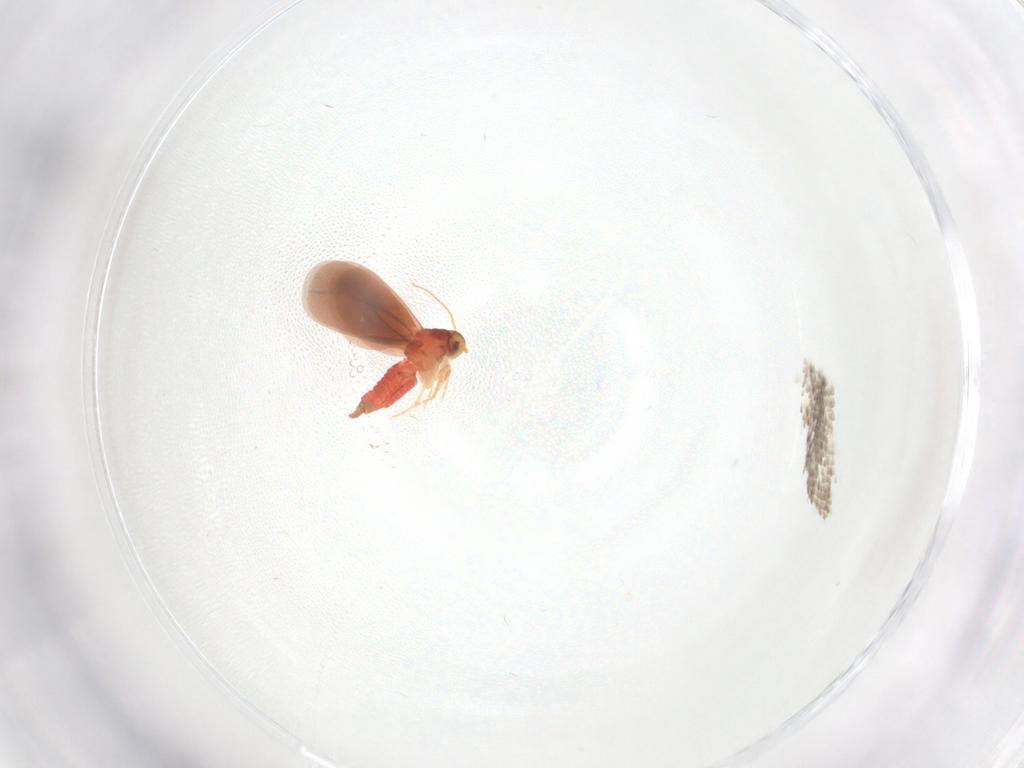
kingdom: Animalia
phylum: Arthropoda
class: Insecta
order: Hemiptera
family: Aleyrodidae
